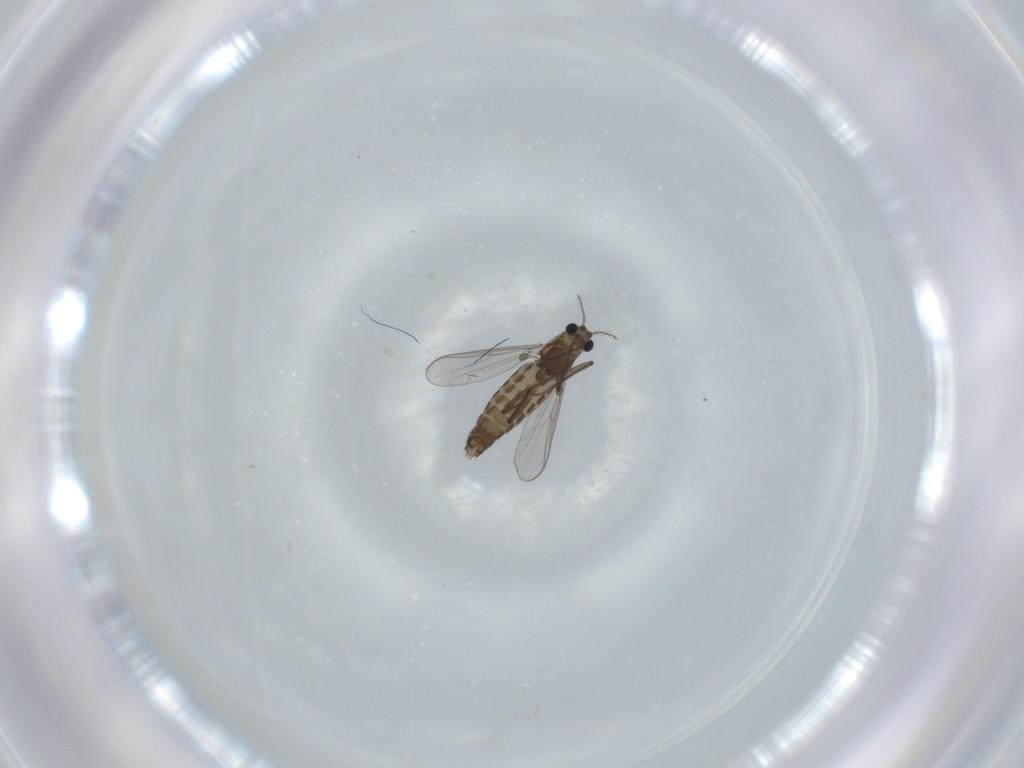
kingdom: Animalia
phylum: Arthropoda
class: Insecta
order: Diptera
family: Chironomidae
